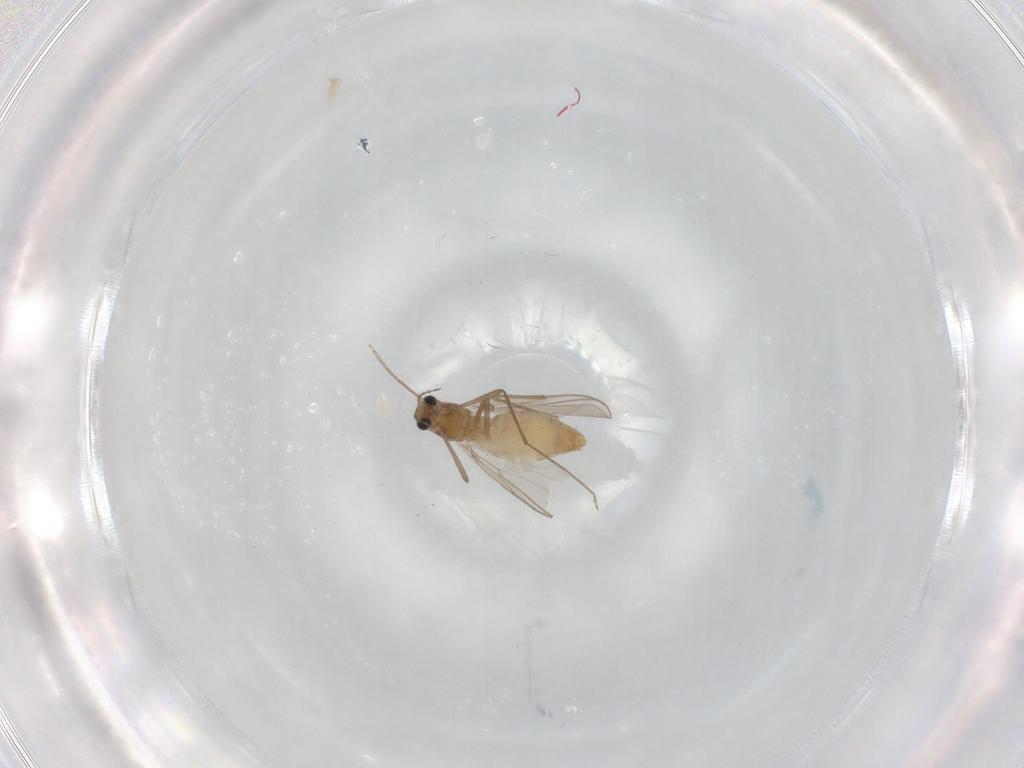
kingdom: Animalia
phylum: Arthropoda
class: Insecta
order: Diptera
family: Chironomidae
